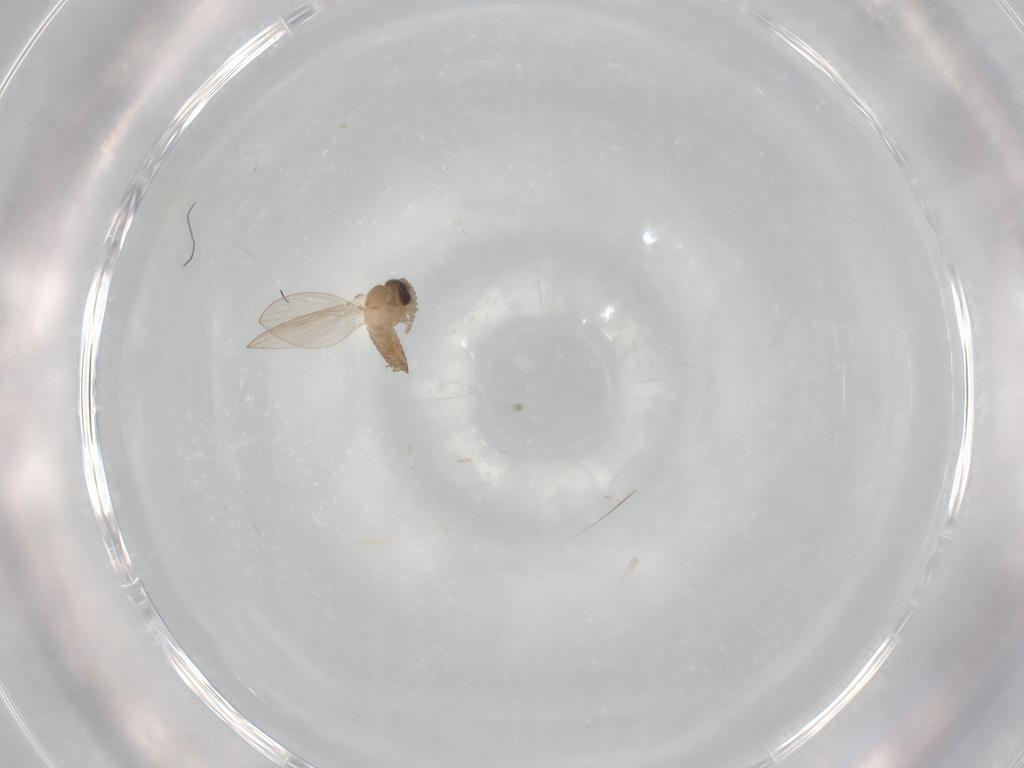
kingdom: Animalia
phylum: Arthropoda
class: Insecta
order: Diptera
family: Psychodidae
